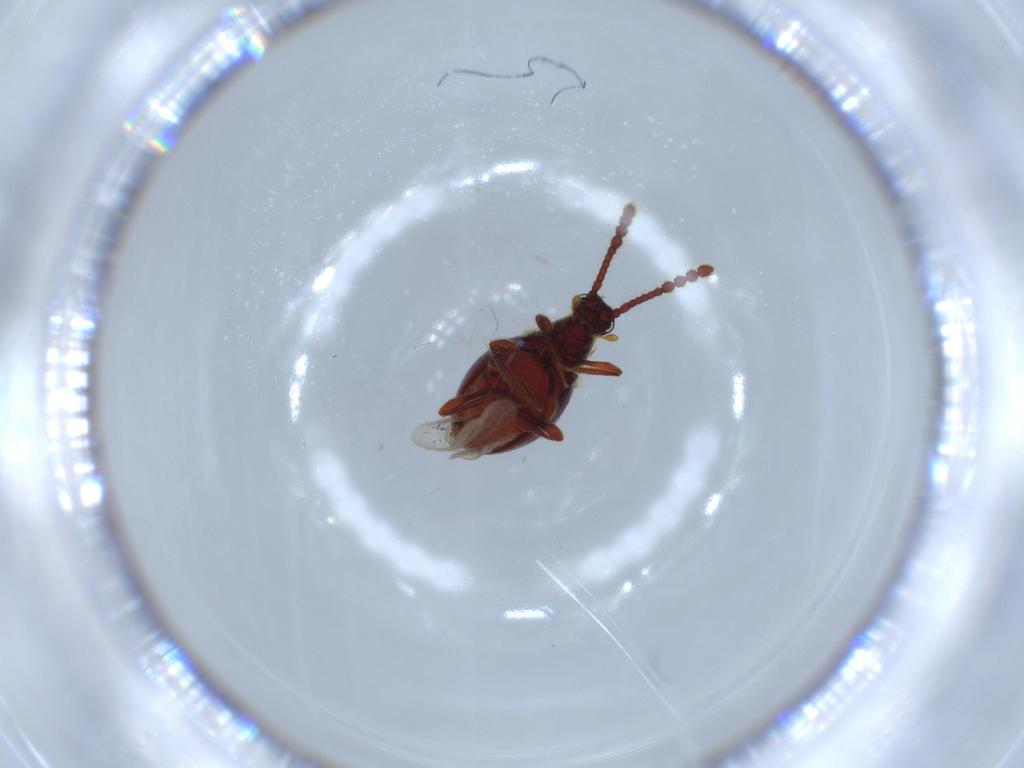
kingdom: Animalia
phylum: Arthropoda
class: Insecta
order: Coleoptera
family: Staphylinidae
